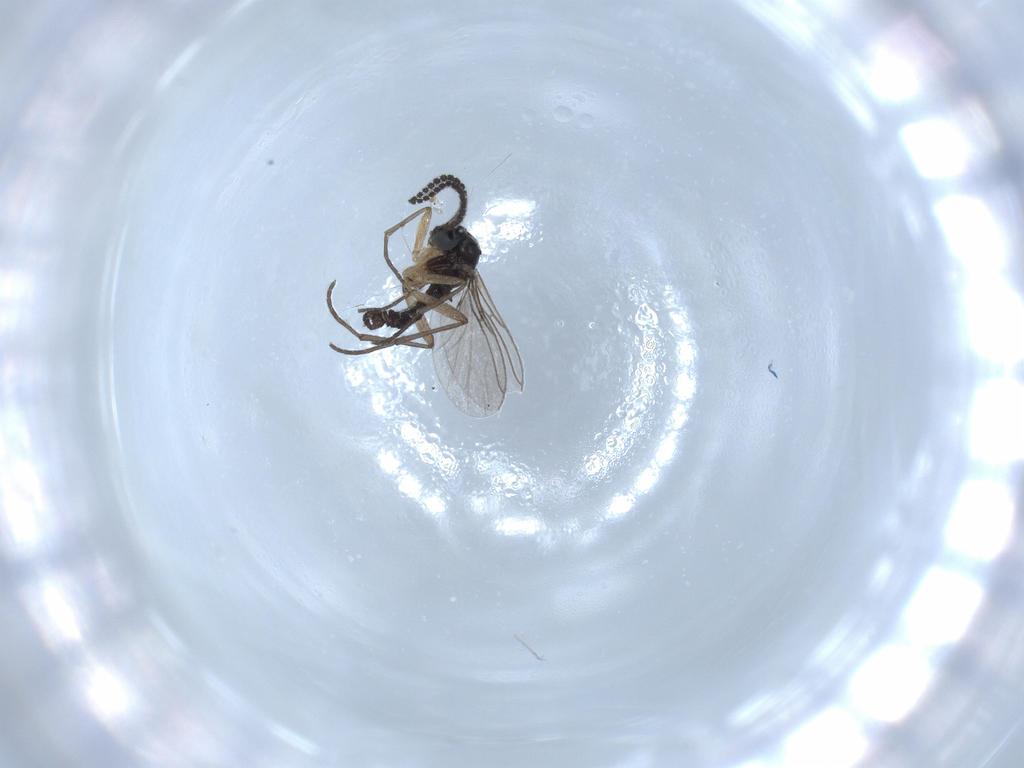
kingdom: Animalia
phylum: Arthropoda
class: Insecta
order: Diptera
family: Sciaridae
